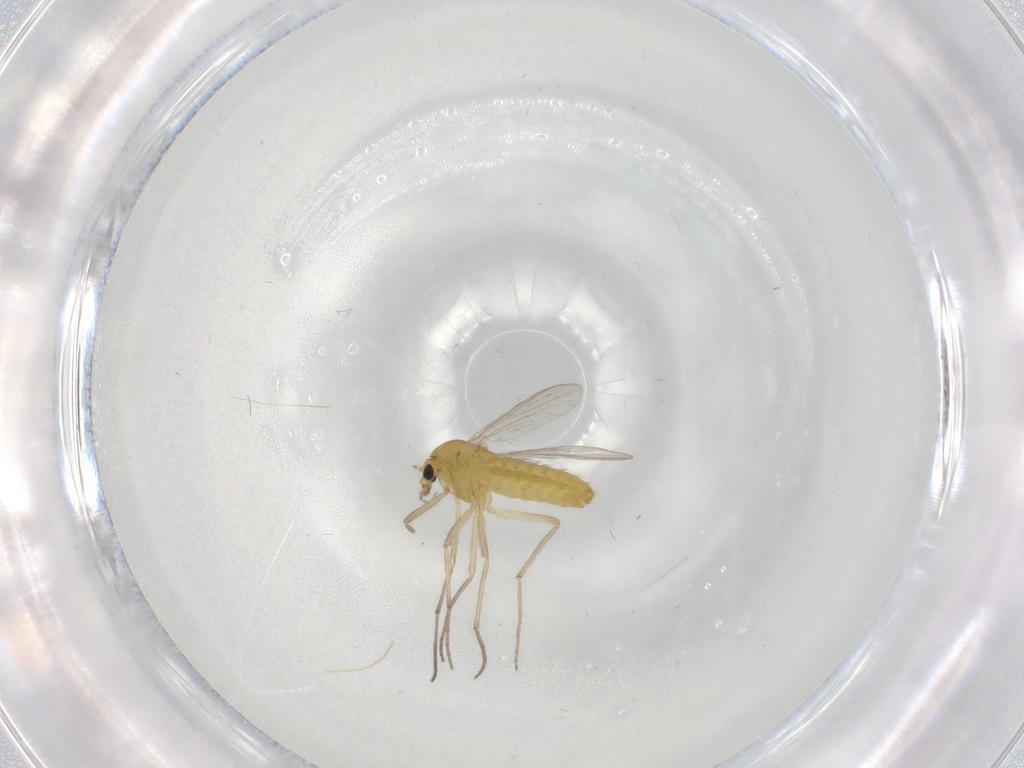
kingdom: Animalia
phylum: Arthropoda
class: Insecta
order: Diptera
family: Chironomidae
